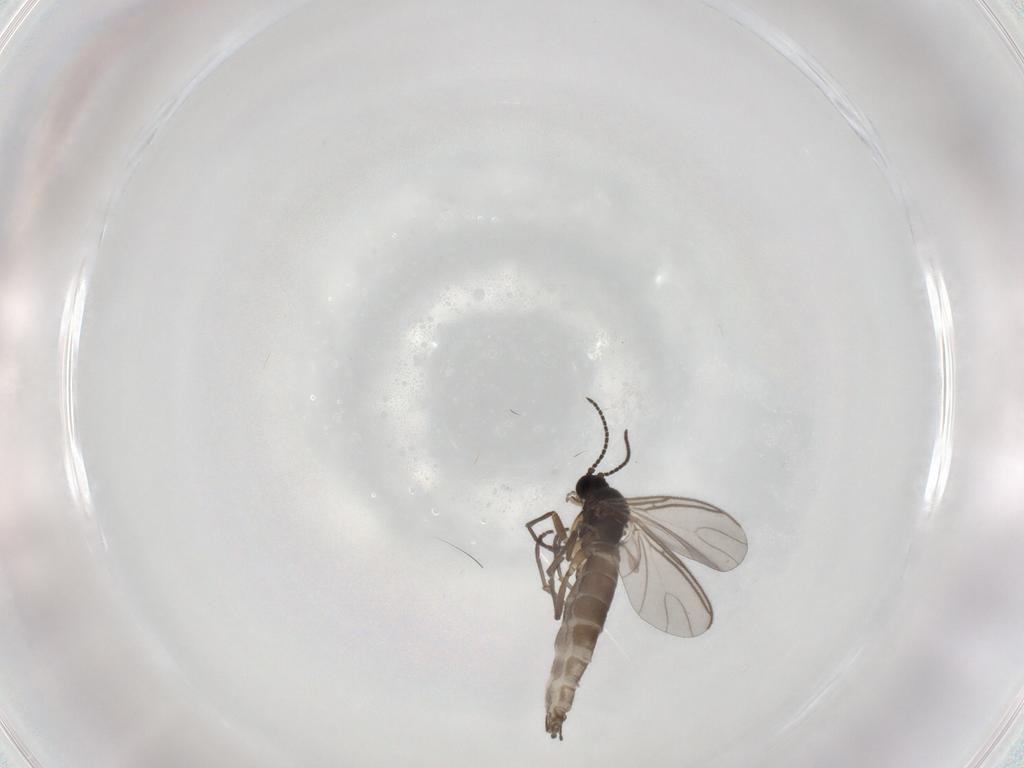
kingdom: Animalia
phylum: Arthropoda
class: Insecta
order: Diptera
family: Sciaridae
